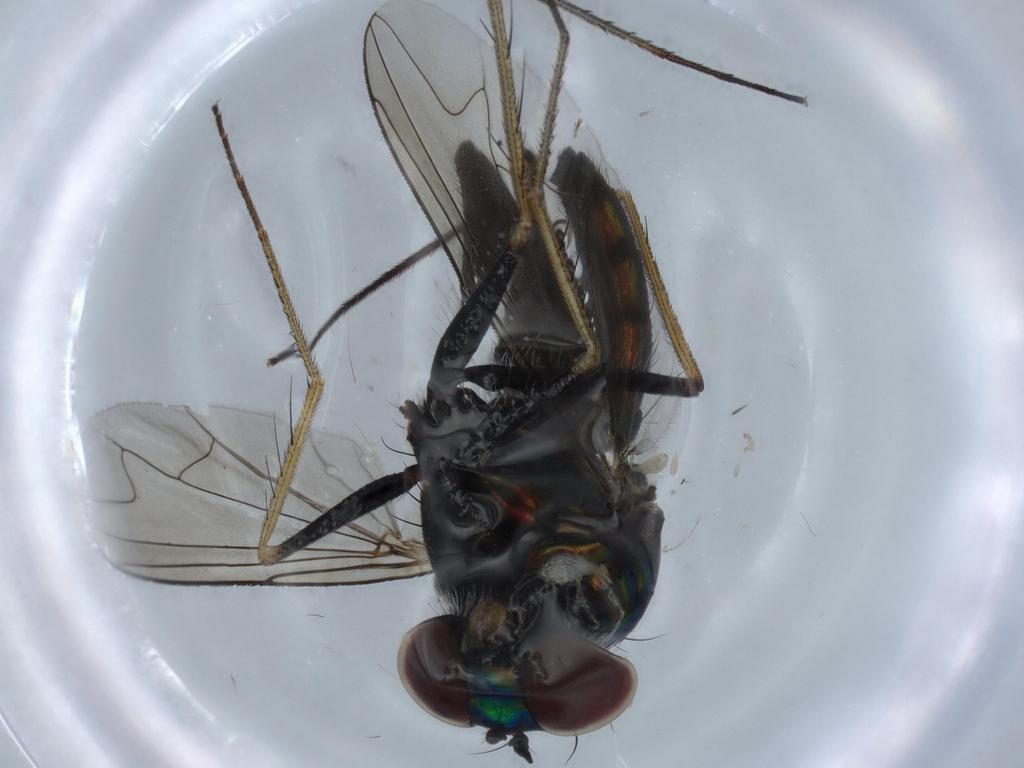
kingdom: Animalia
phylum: Arthropoda
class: Insecta
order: Diptera
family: Dolichopodidae
